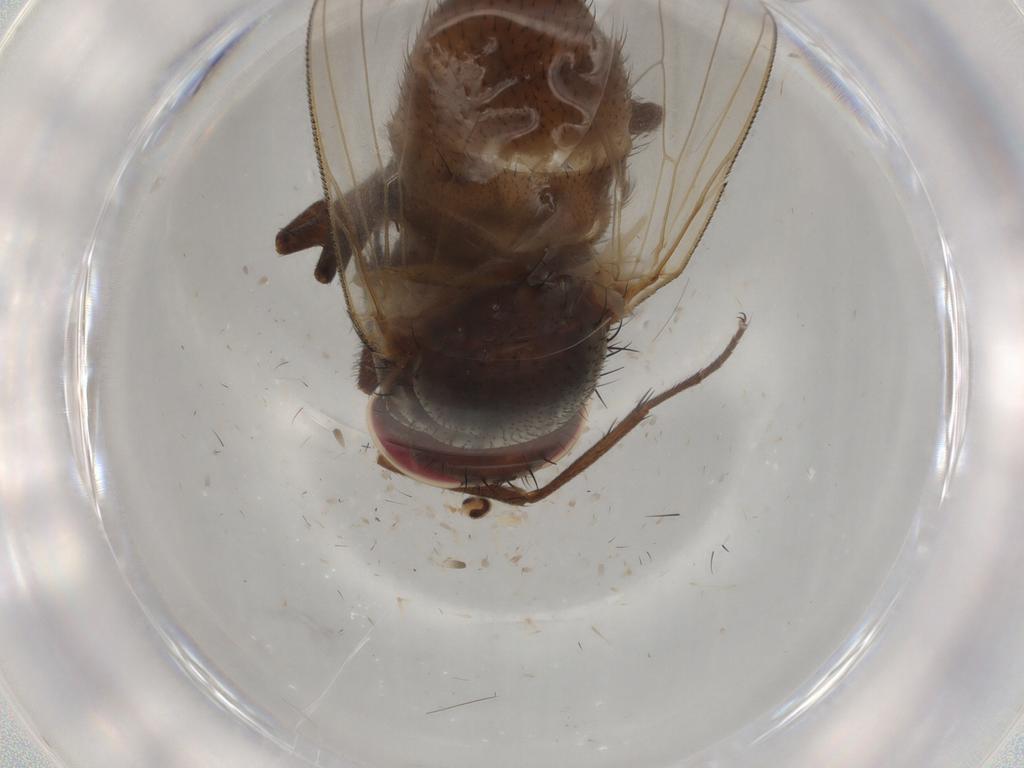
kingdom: Animalia
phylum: Arthropoda
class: Insecta
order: Diptera
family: Muscidae
